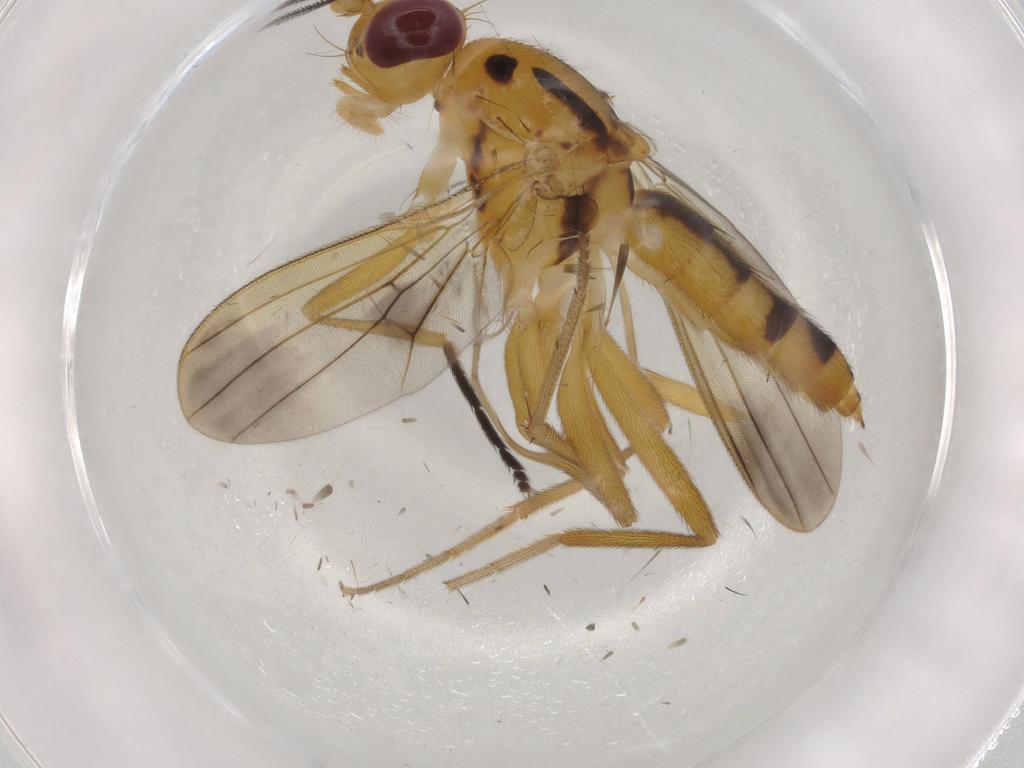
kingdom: Animalia
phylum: Arthropoda
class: Insecta
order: Diptera
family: Clusiidae
